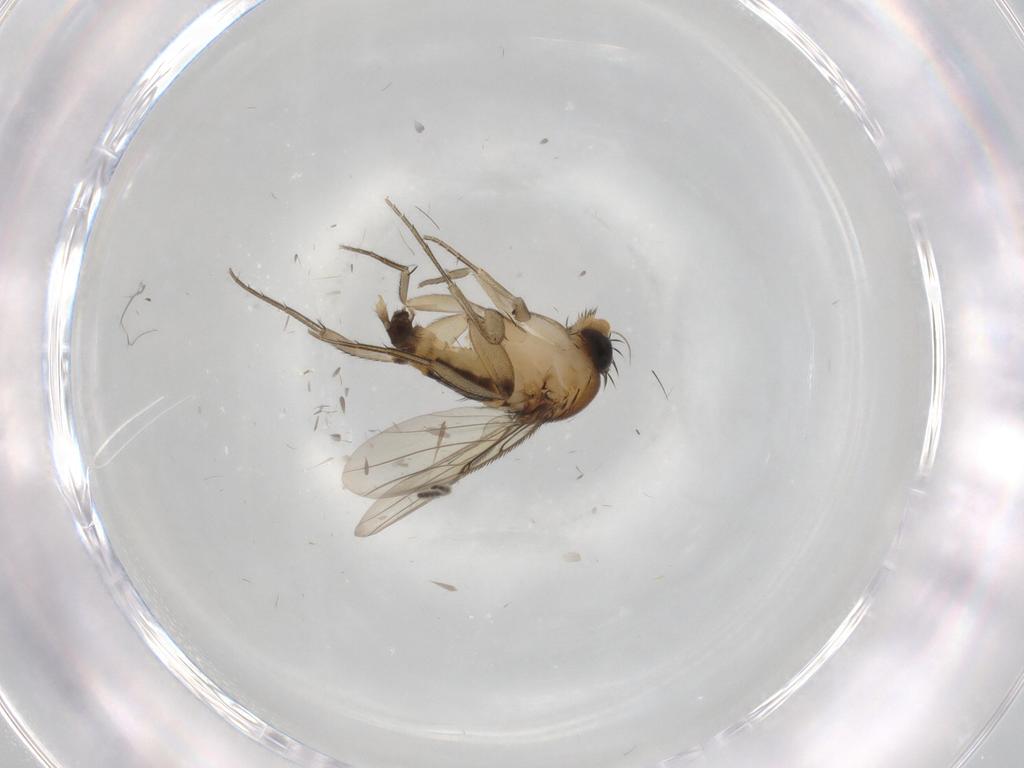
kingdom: Animalia
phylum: Arthropoda
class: Insecta
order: Diptera
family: Phoridae
